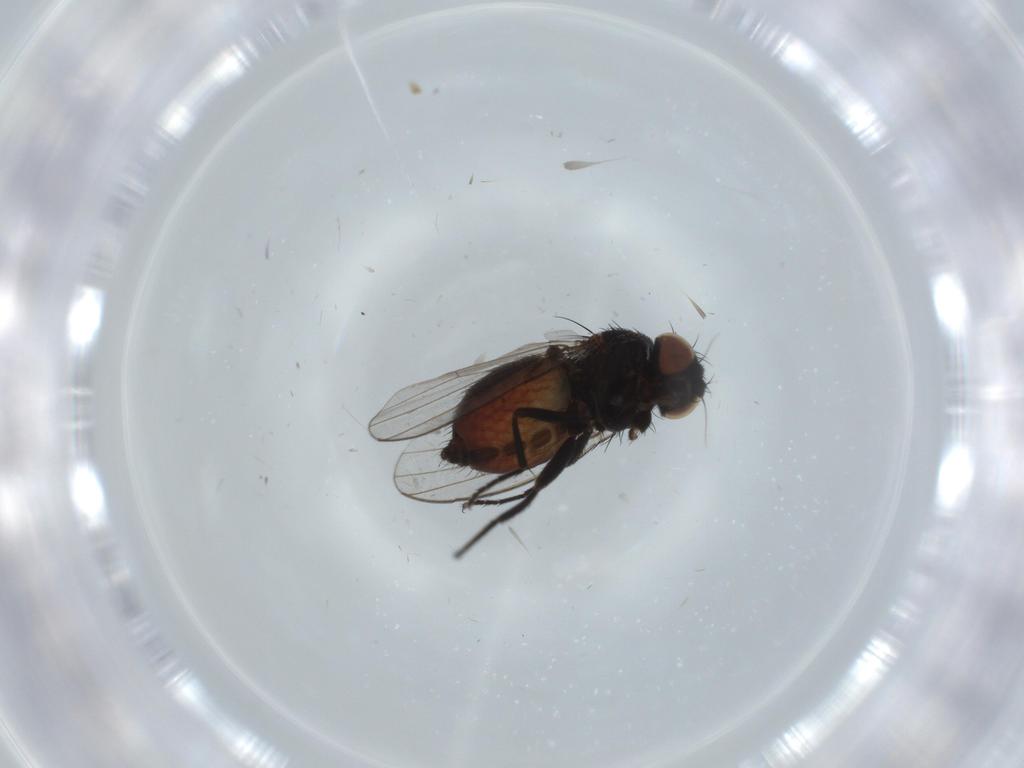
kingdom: Animalia
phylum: Arthropoda
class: Insecta
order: Diptera
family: Milichiidae
